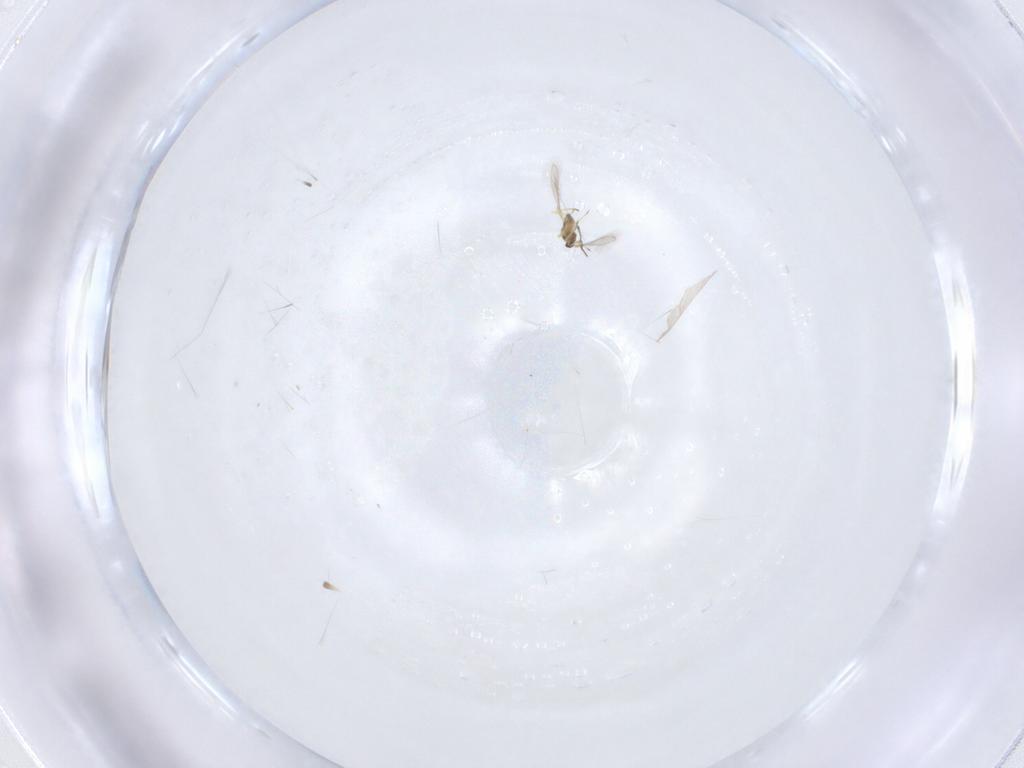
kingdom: Animalia
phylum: Arthropoda
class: Insecta
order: Hymenoptera
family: Mymaridae
